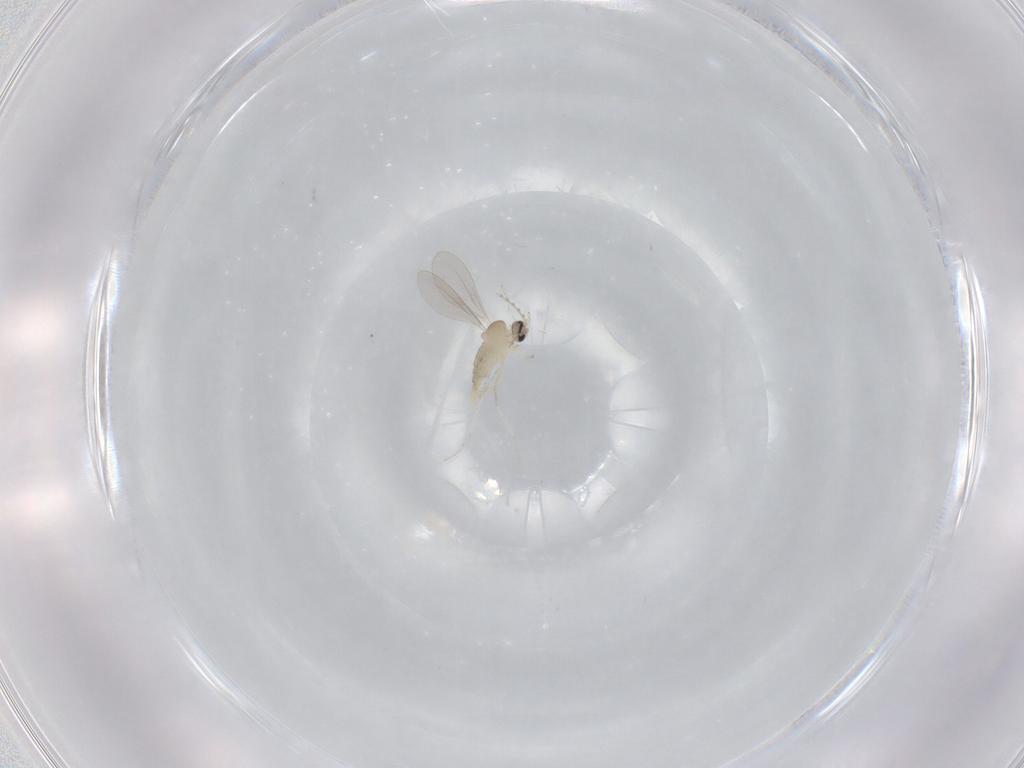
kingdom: Animalia
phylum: Arthropoda
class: Insecta
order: Diptera
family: Cecidomyiidae
